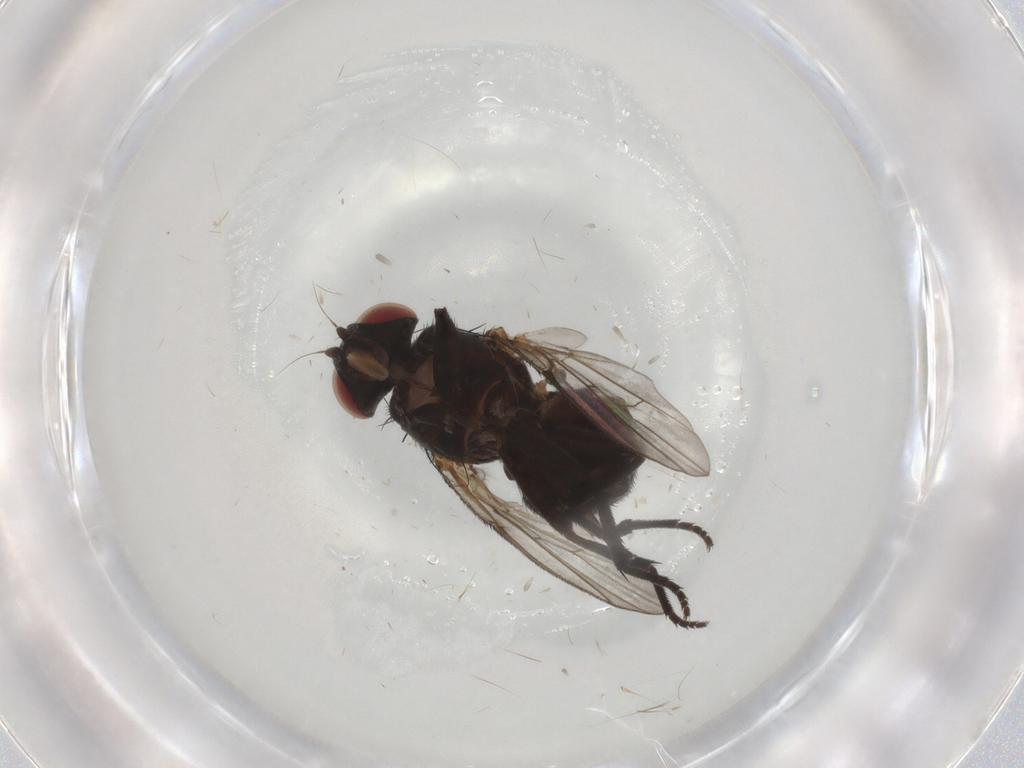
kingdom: Animalia
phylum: Arthropoda
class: Insecta
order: Diptera
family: Agromyzidae
